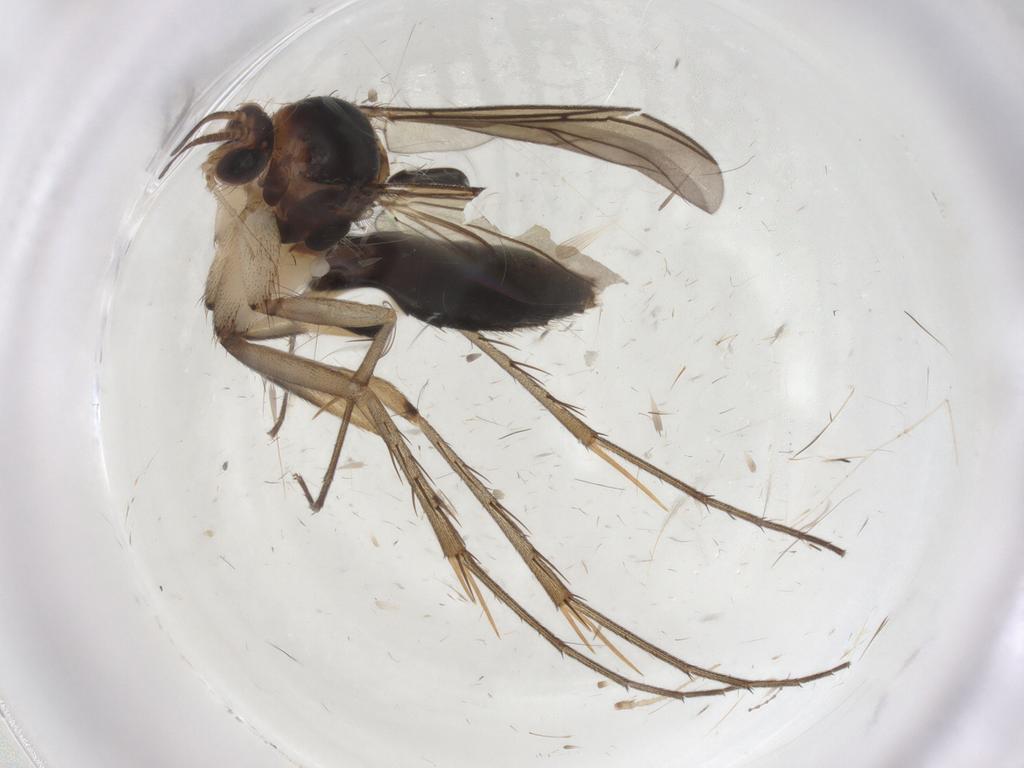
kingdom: Animalia
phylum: Arthropoda
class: Insecta
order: Diptera
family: Mycetophilidae
